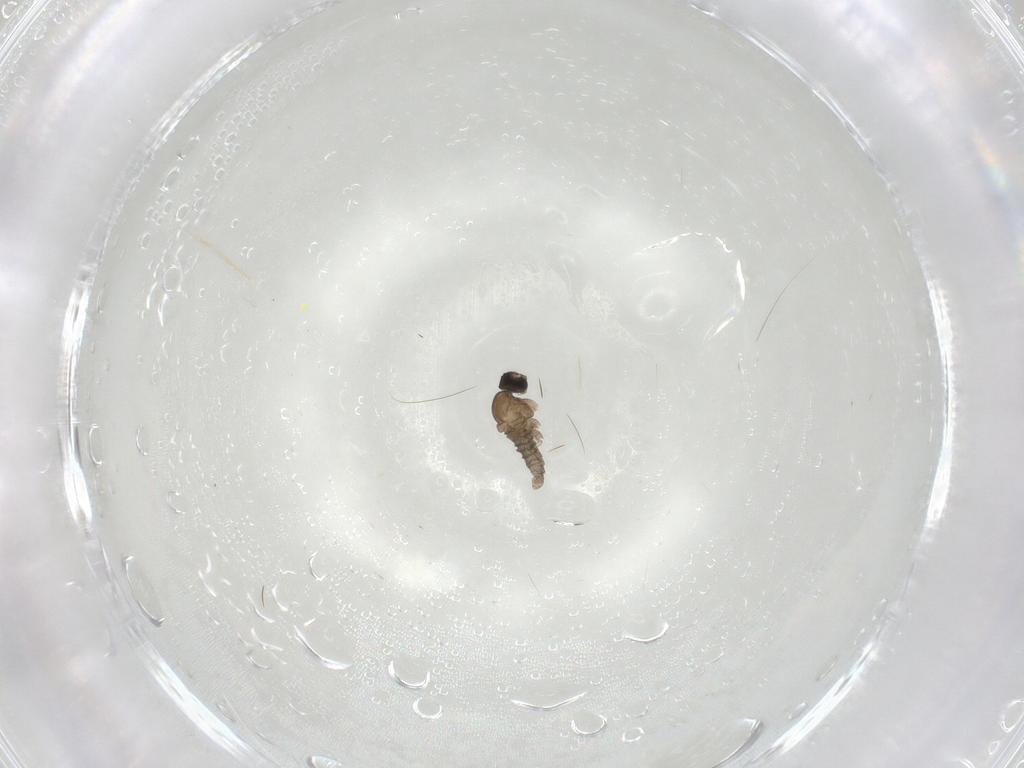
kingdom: Animalia
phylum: Arthropoda
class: Insecta
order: Diptera
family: Cecidomyiidae
